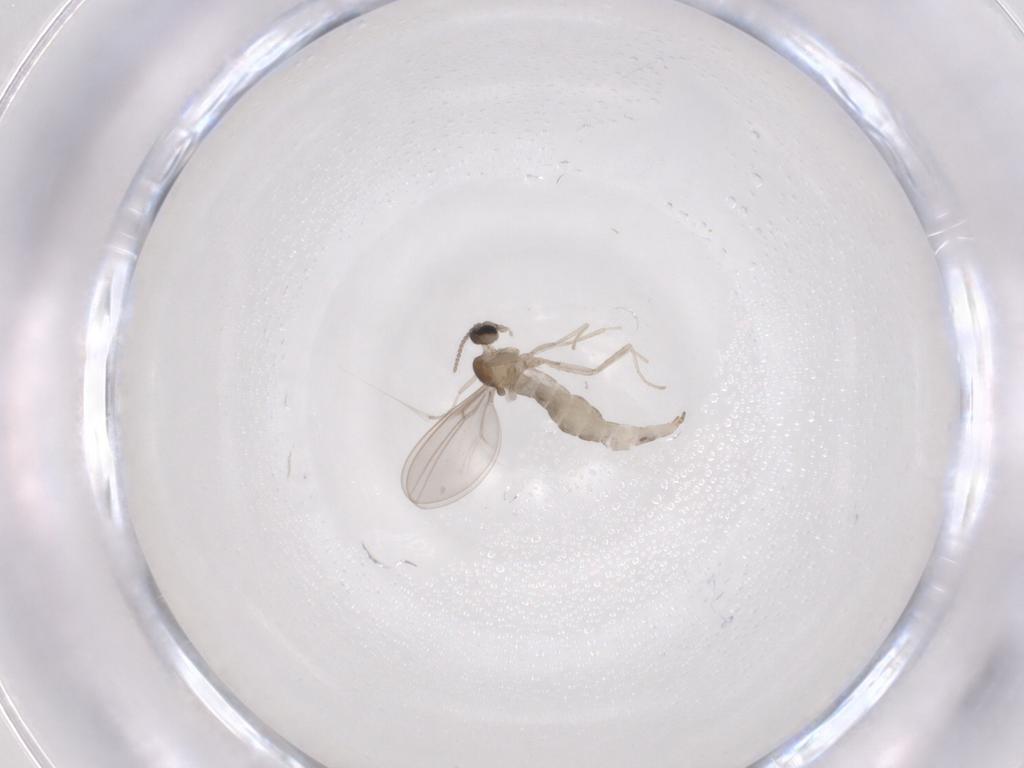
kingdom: Animalia
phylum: Arthropoda
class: Insecta
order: Diptera
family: Cecidomyiidae
